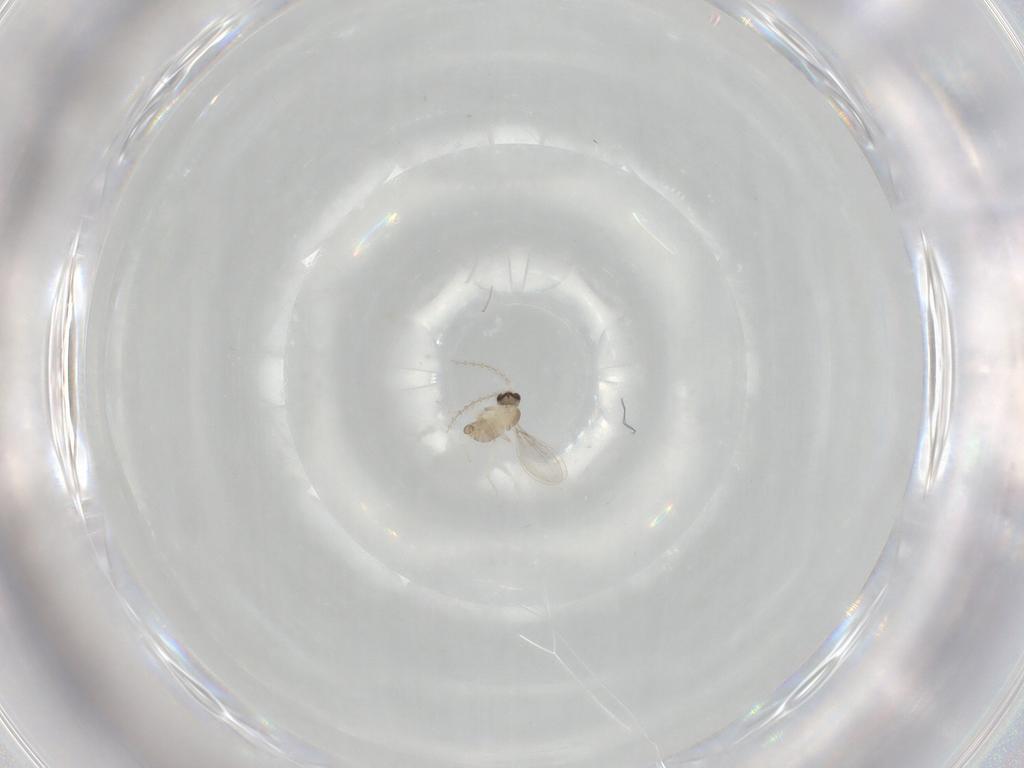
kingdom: Animalia
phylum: Arthropoda
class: Insecta
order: Diptera
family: Cecidomyiidae
